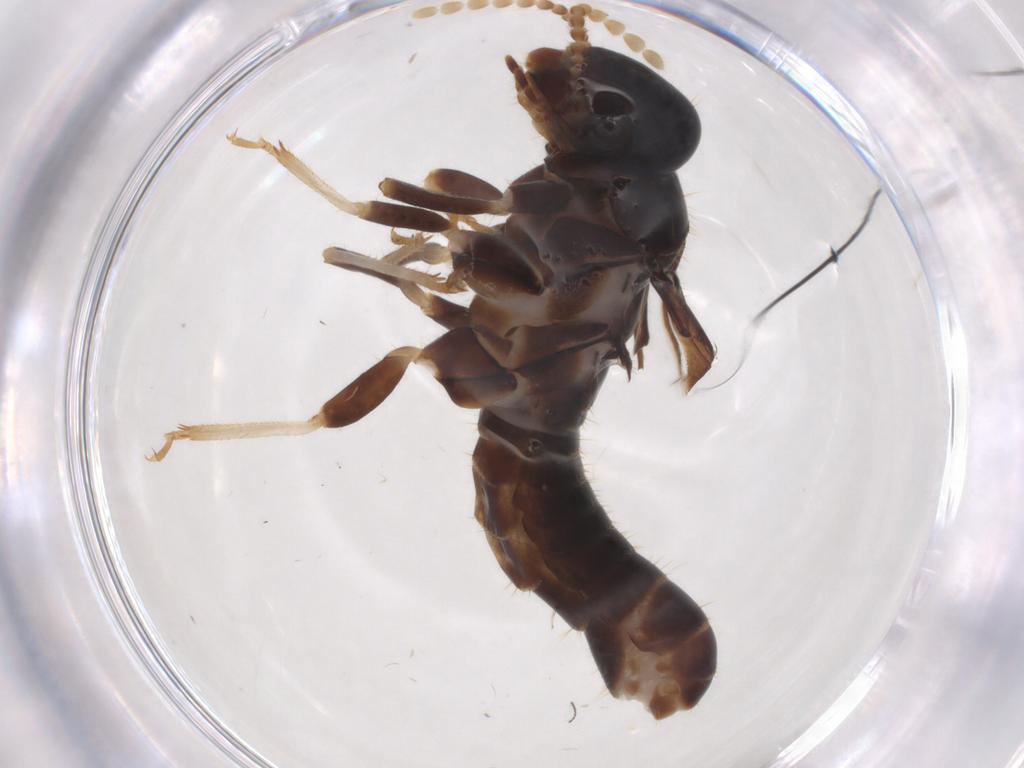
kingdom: Animalia
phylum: Arthropoda
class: Insecta
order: Blattodea
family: Kalotermitidae
